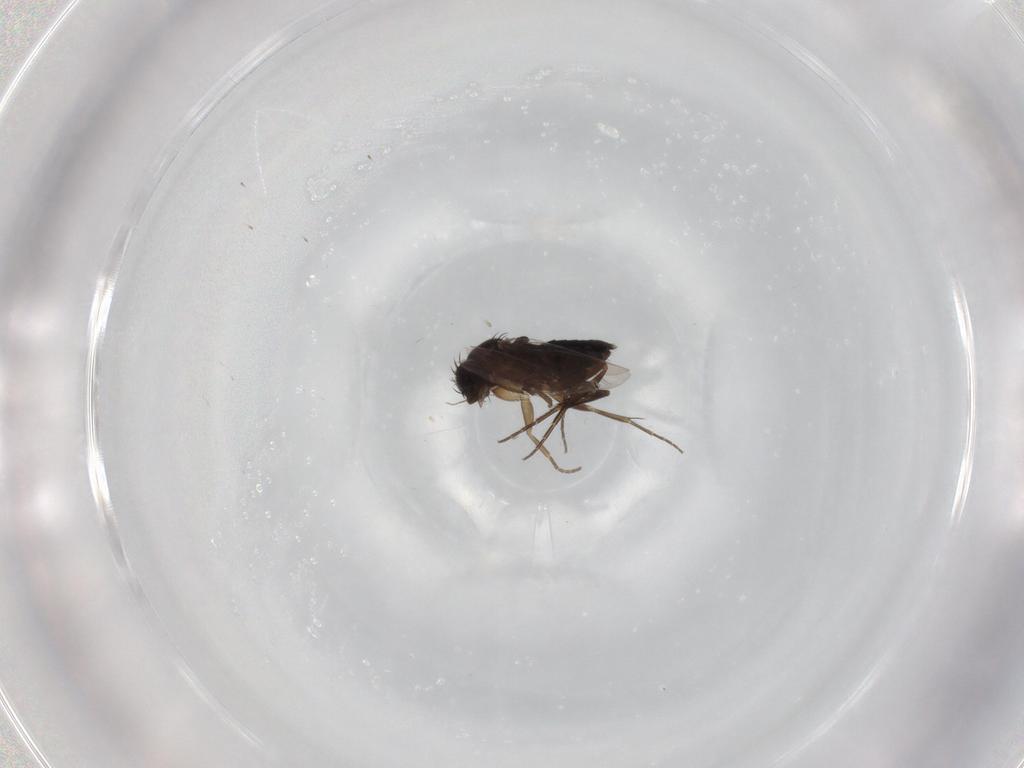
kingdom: Animalia
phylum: Arthropoda
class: Insecta
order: Diptera
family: Phoridae
